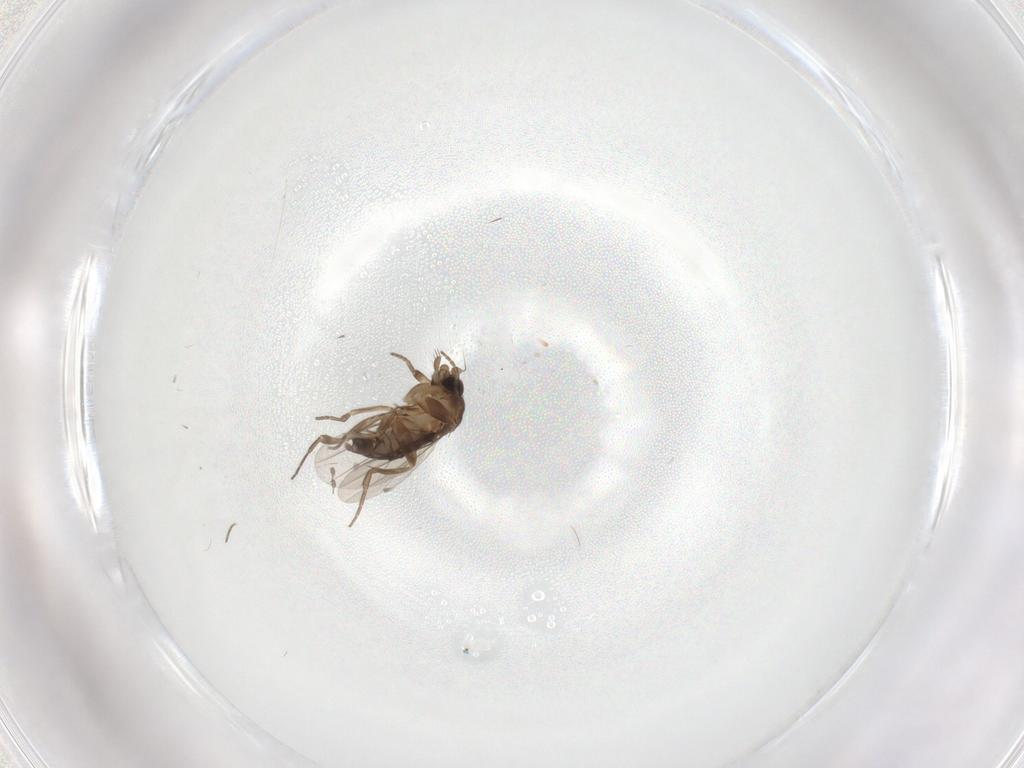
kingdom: Animalia
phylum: Arthropoda
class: Insecta
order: Diptera
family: Phoridae
